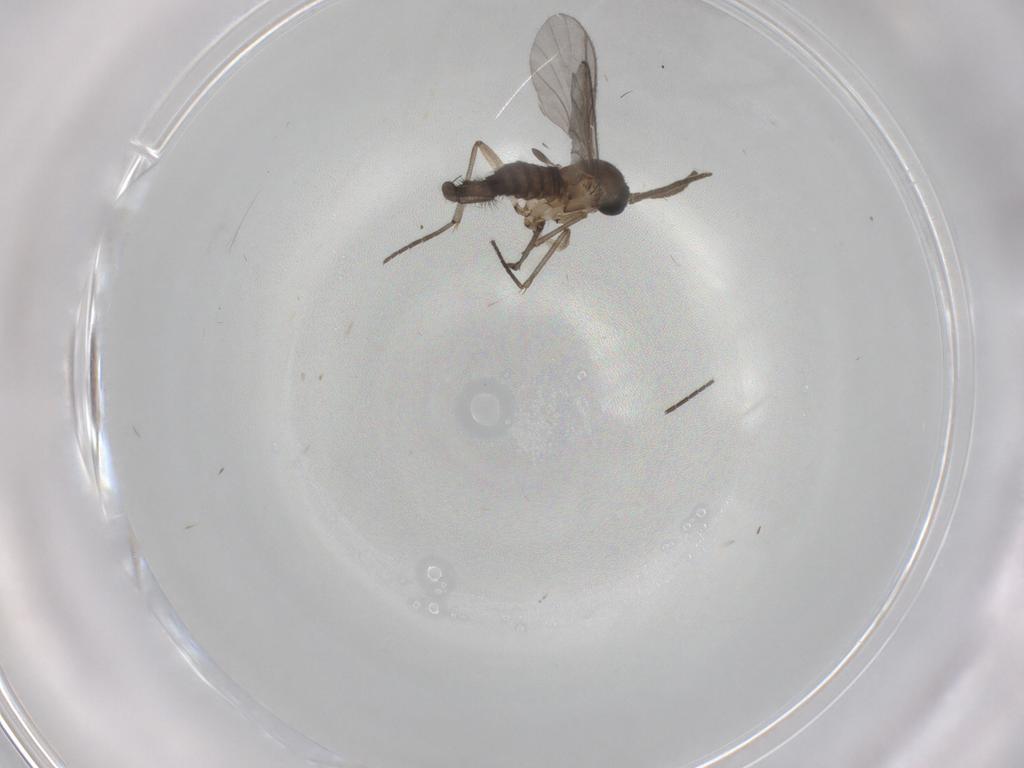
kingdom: Animalia
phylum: Arthropoda
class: Insecta
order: Diptera
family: Sciaridae
